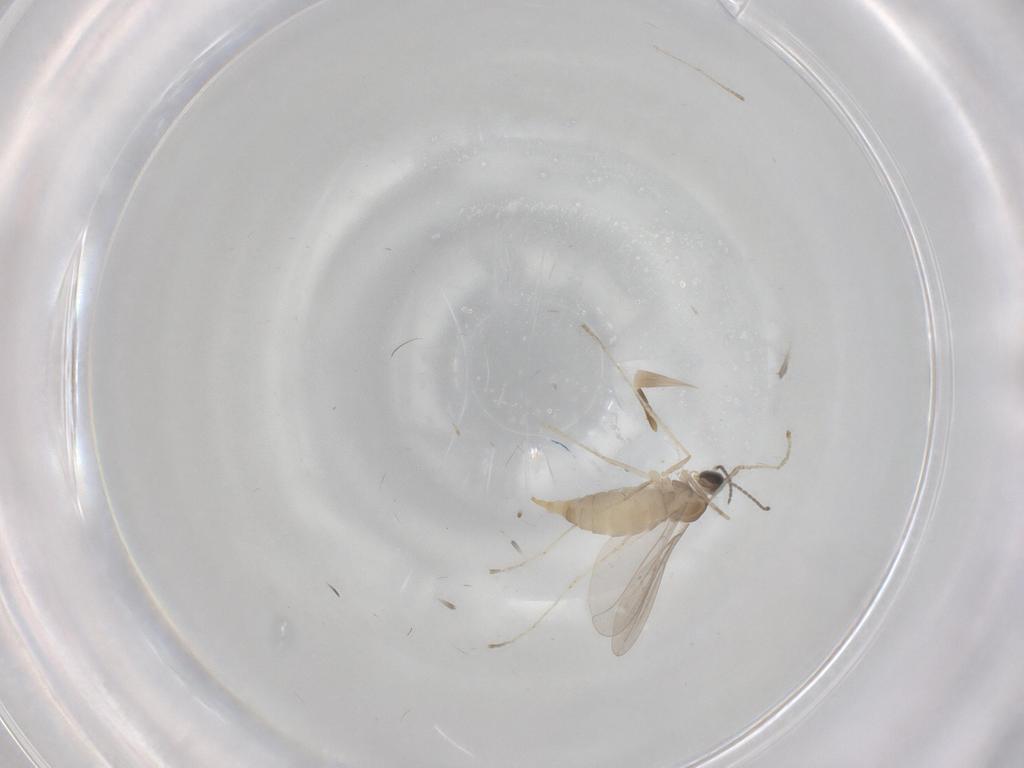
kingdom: Animalia
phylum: Arthropoda
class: Insecta
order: Diptera
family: Cecidomyiidae
